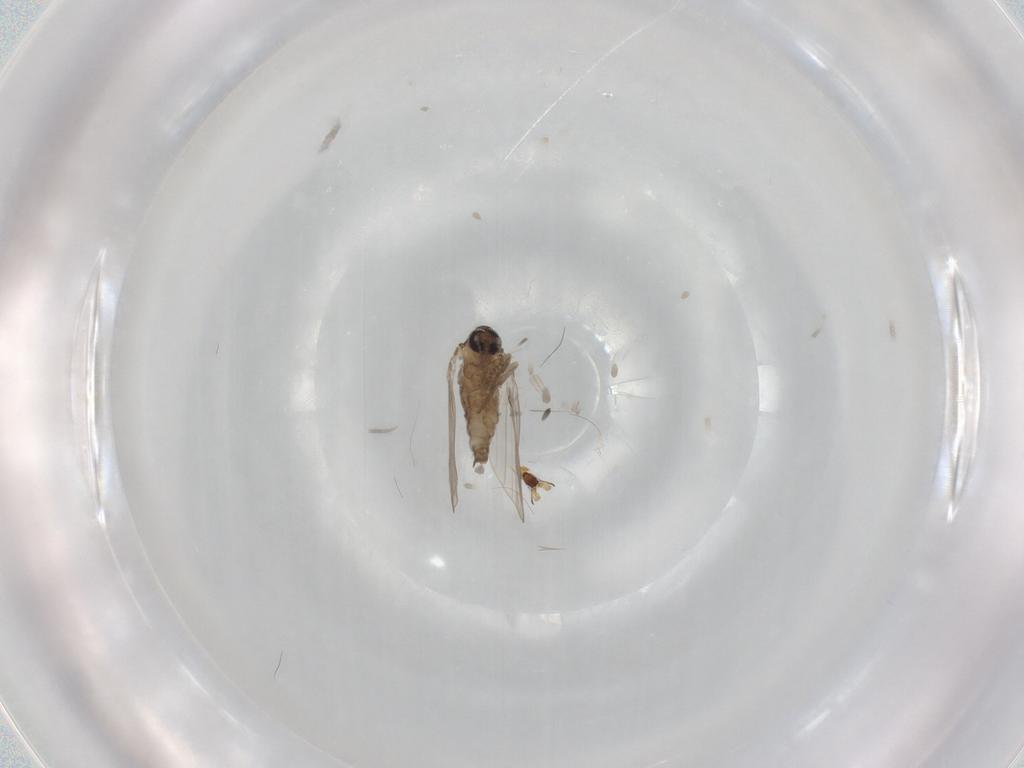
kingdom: Animalia
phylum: Arthropoda
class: Insecta
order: Diptera
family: Psychodidae
